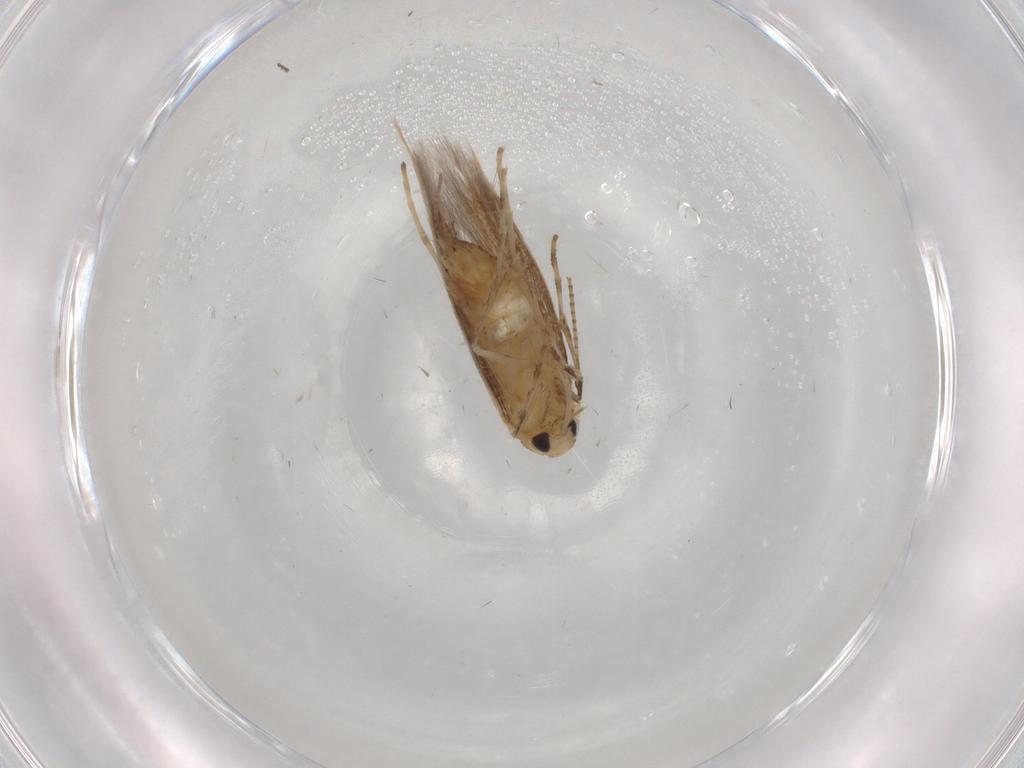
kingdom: Animalia
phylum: Arthropoda
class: Insecta
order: Lepidoptera
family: Gracillariidae
